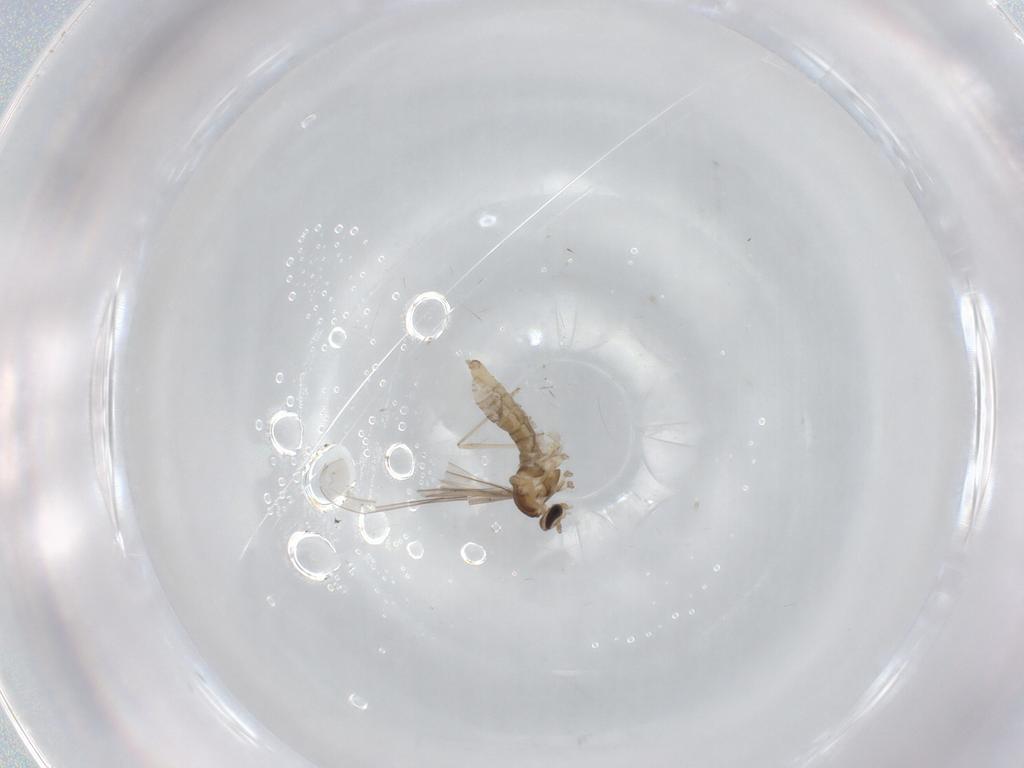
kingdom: Animalia
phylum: Arthropoda
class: Insecta
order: Diptera
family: Cecidomyiidae
